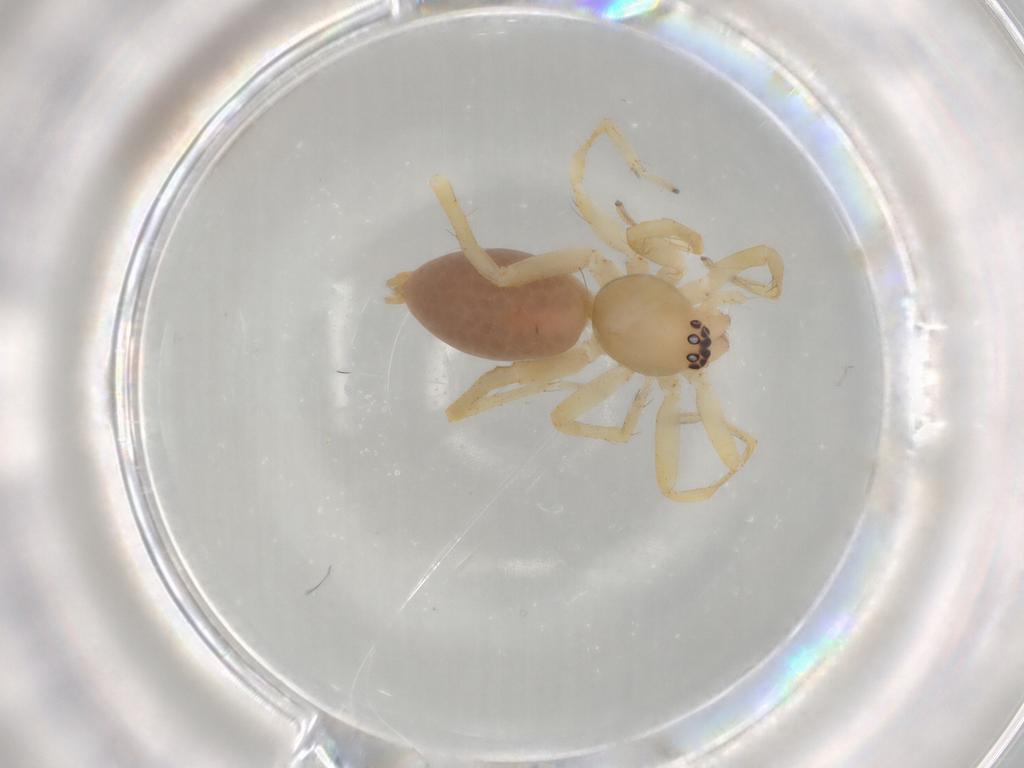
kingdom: Animalia
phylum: Arthropoda
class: Arachnida
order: Araneae
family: Clubionidae
